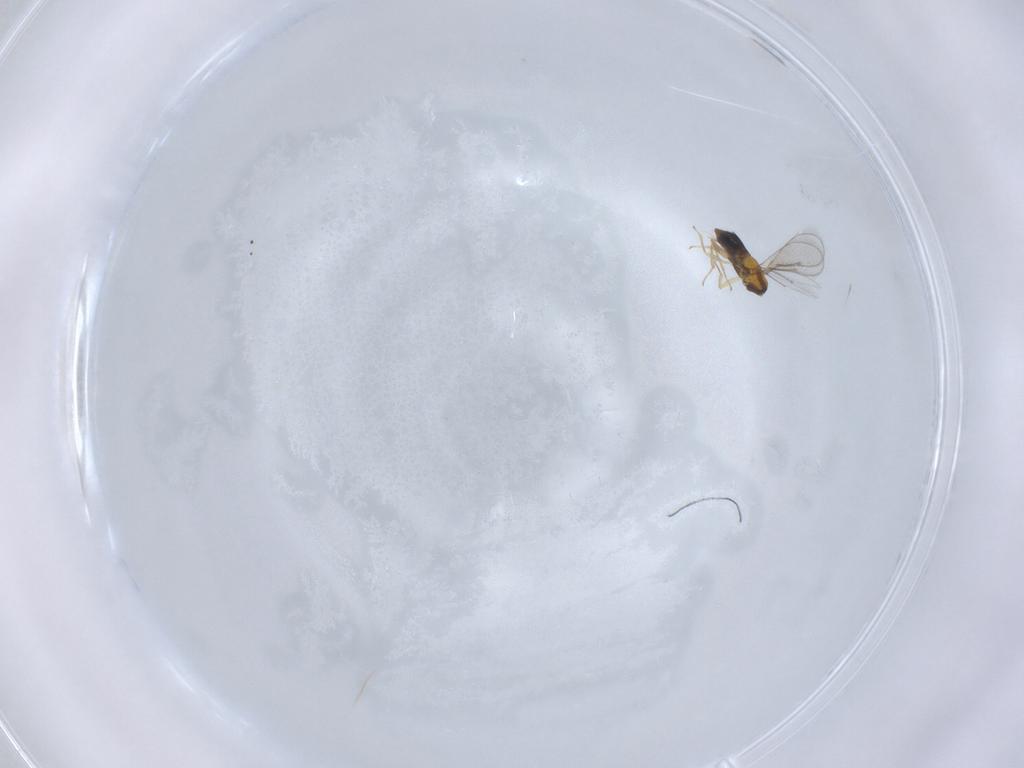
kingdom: Animalia
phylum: Arthropoda
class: Insecta
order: Hymenoptera
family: Aphelinidae
